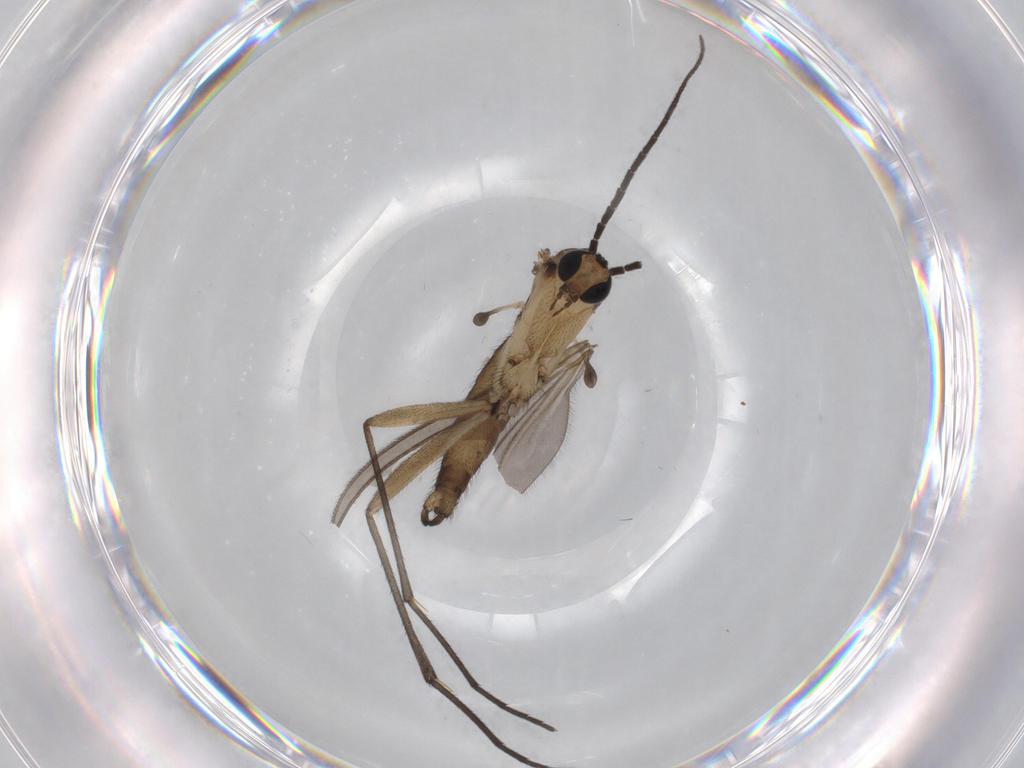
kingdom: Animalia
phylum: Arthropoda
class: Insecta
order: Diptera
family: Sciaridae
